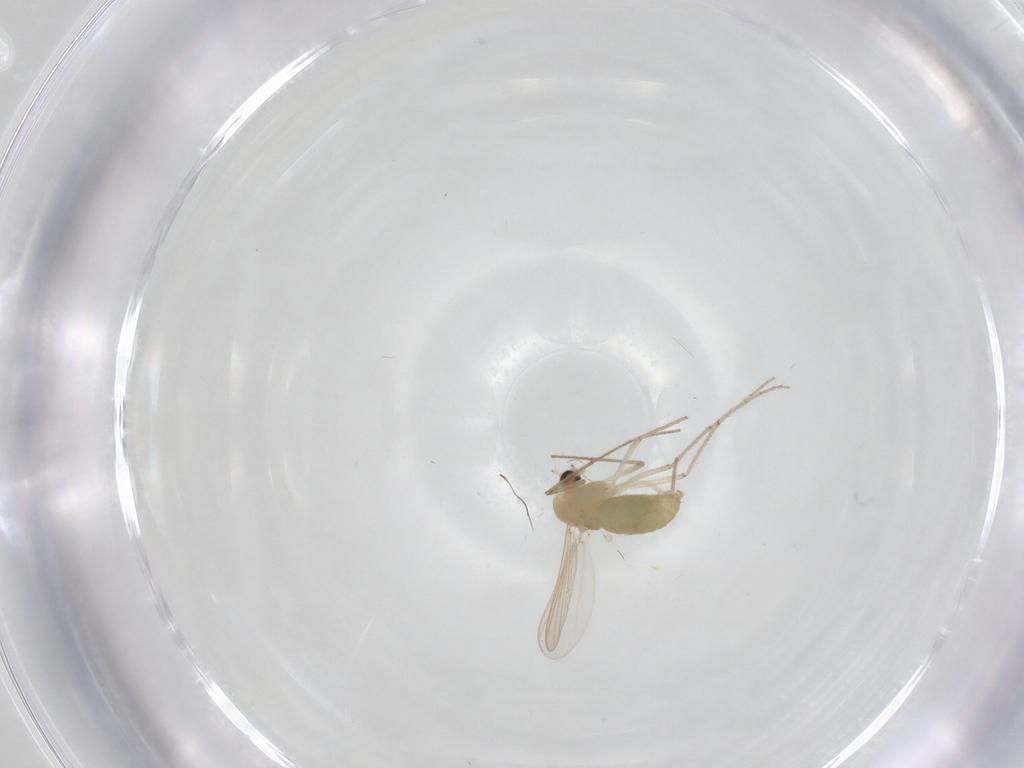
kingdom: Animalia
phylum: Arthropoda
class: Insecta
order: Diptera
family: Chironomidae
